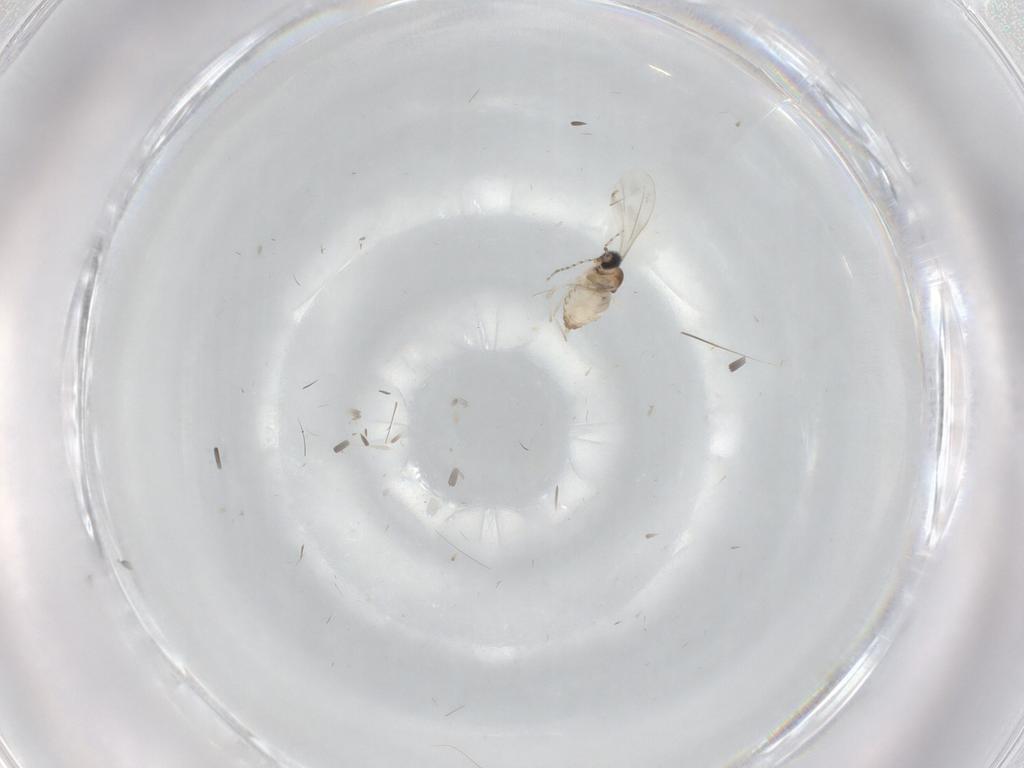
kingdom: Animalia
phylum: Arthropoda
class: Insecta
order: Diptera
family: Cecidomyiidae
